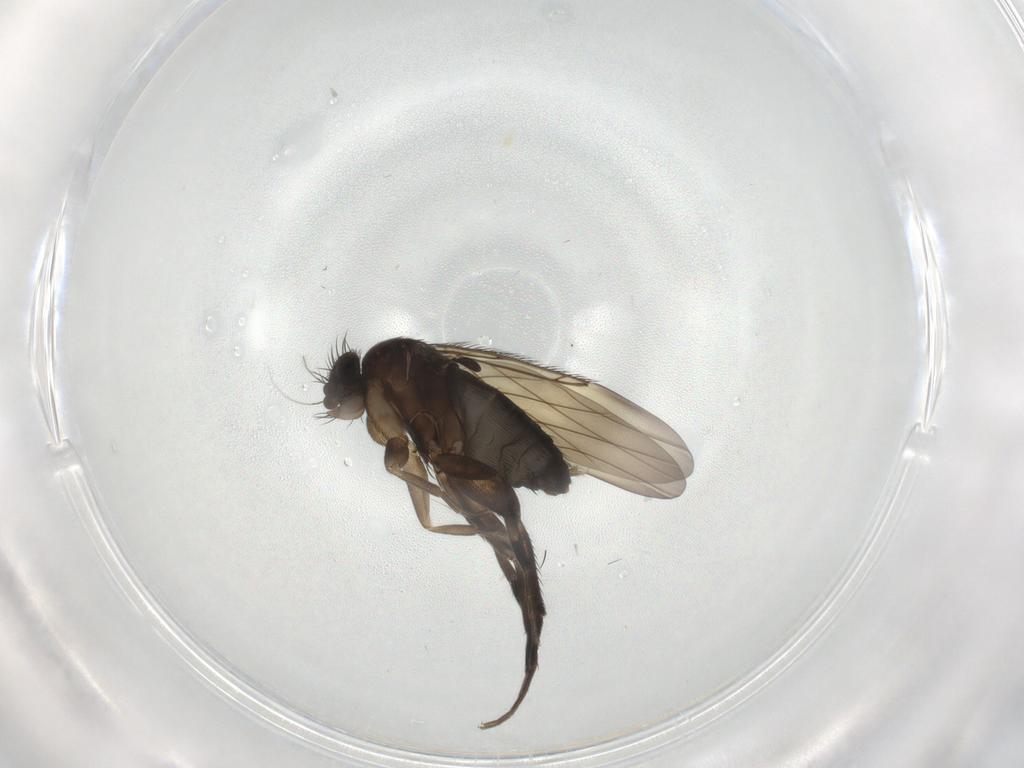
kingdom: Animalia
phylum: Arthropoda
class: Insecta
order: Diptera
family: Phoridae
